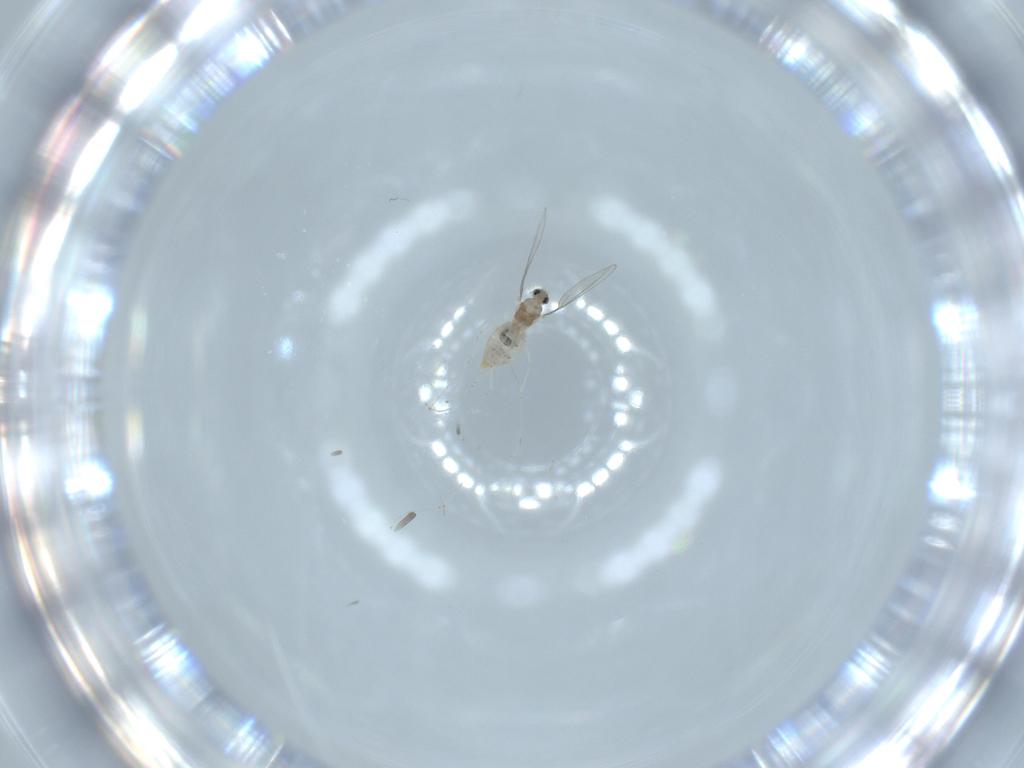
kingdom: Animalia
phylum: Arthropoda
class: Insecta
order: Diptera
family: Cecidomyiidae
